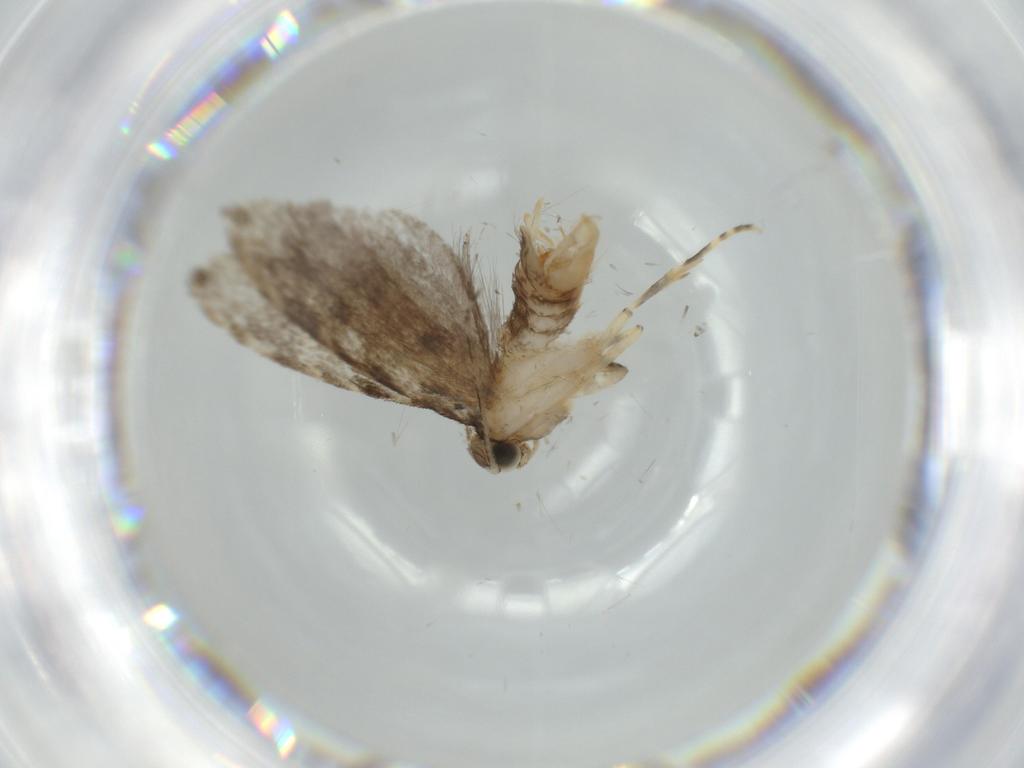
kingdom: Animalia
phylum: Arthropoda
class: Insecta
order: Lepidoptera
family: Tineidae
